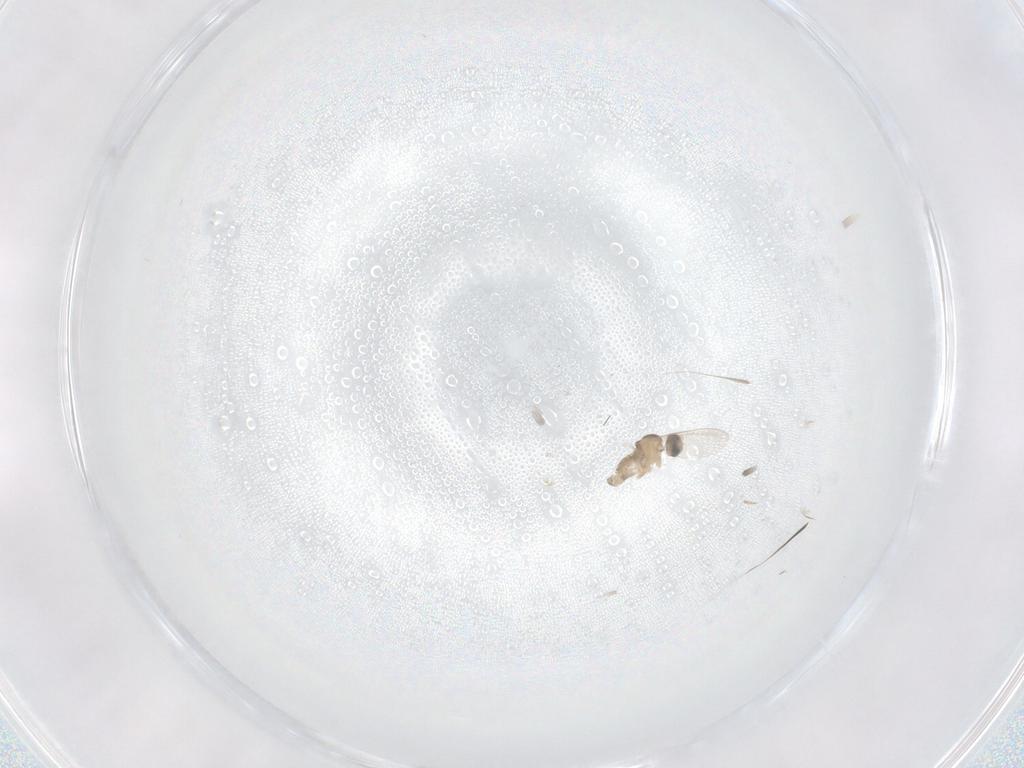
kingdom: Animalia
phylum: Arthropoda
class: Insecta
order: Diptera
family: Cecidomyiidae
